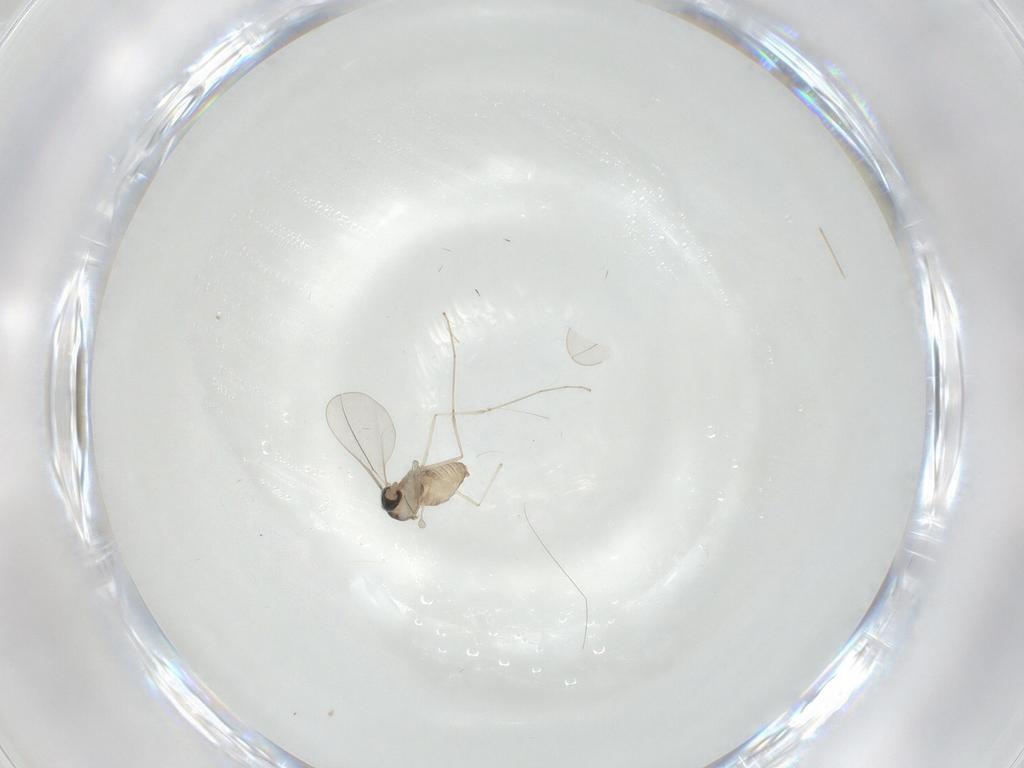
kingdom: Animalia
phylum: Arthropoda
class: Insecta
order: Diptera
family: Cecidomyiidae
